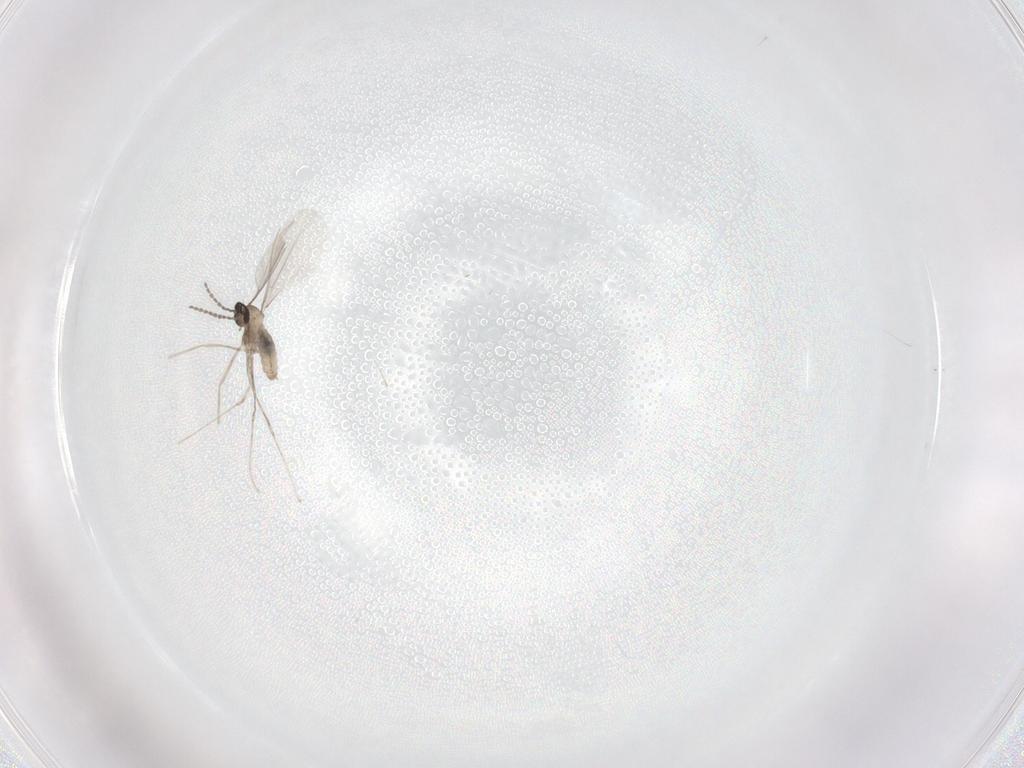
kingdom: Animalia
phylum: Arthropoda
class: Insecta
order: Diptera
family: Cecidomyiidae
